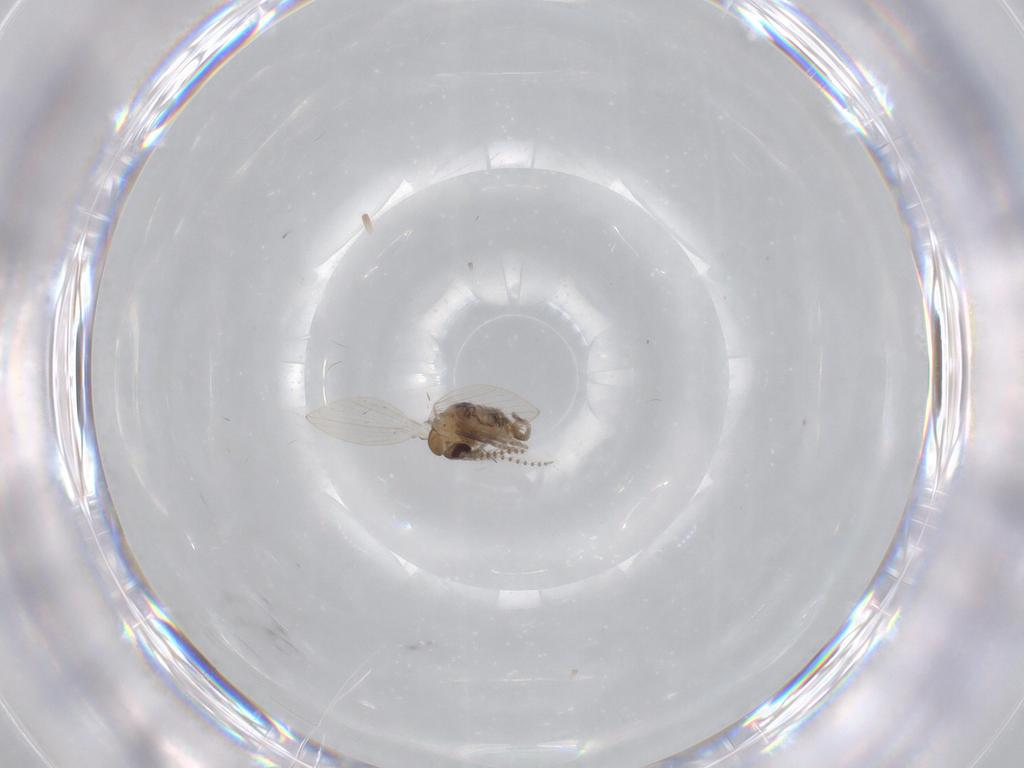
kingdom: Animalia
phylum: Arthropoda
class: Insecta
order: Diptera
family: Psychodidae
